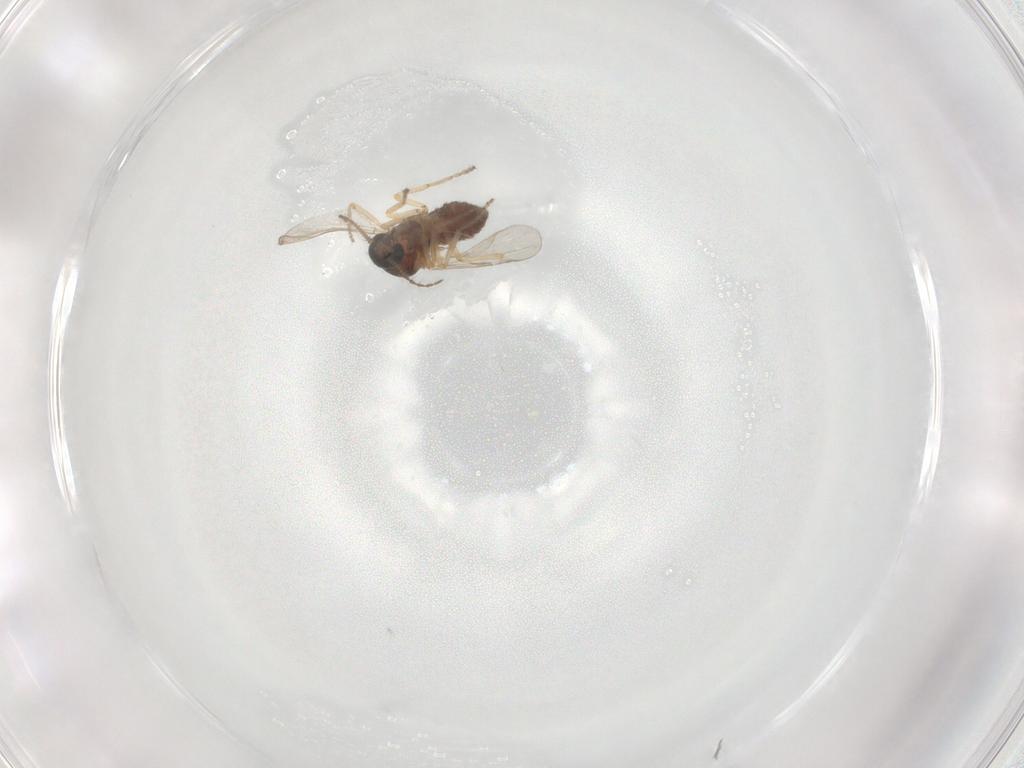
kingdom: Animalia
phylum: Arthropoda
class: Insecta
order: Diptera
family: Ceratopogonidae
